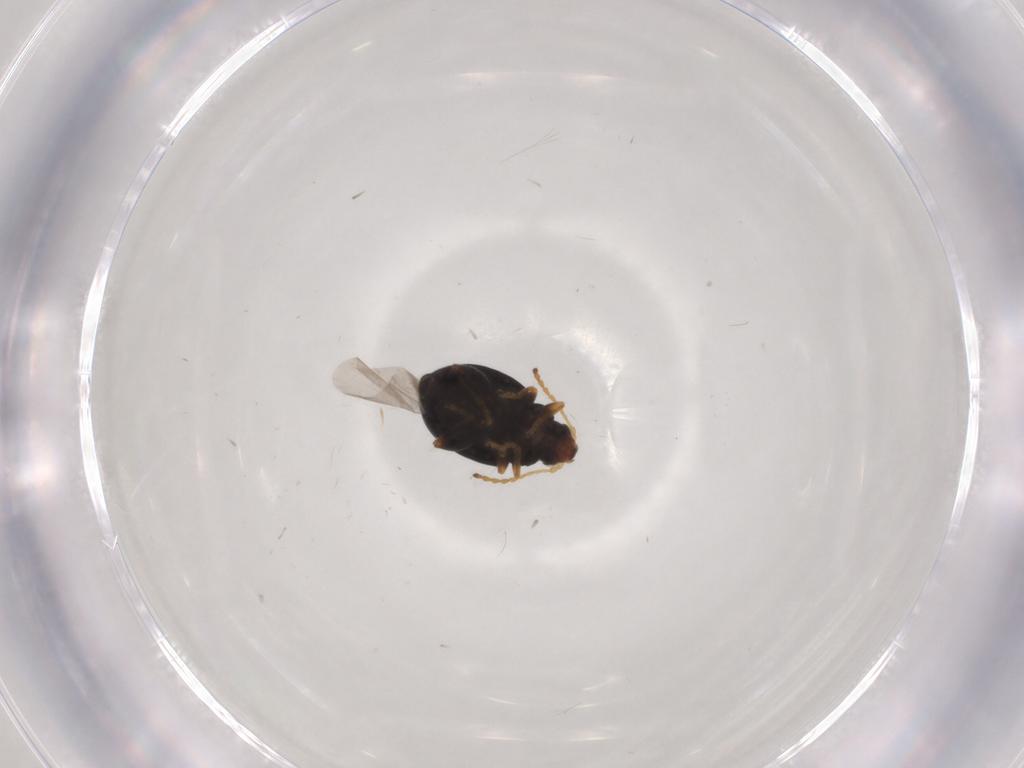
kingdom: Animalia
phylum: Arthropoda
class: Insecta
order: Coleoptera
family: Chrysomelidae
